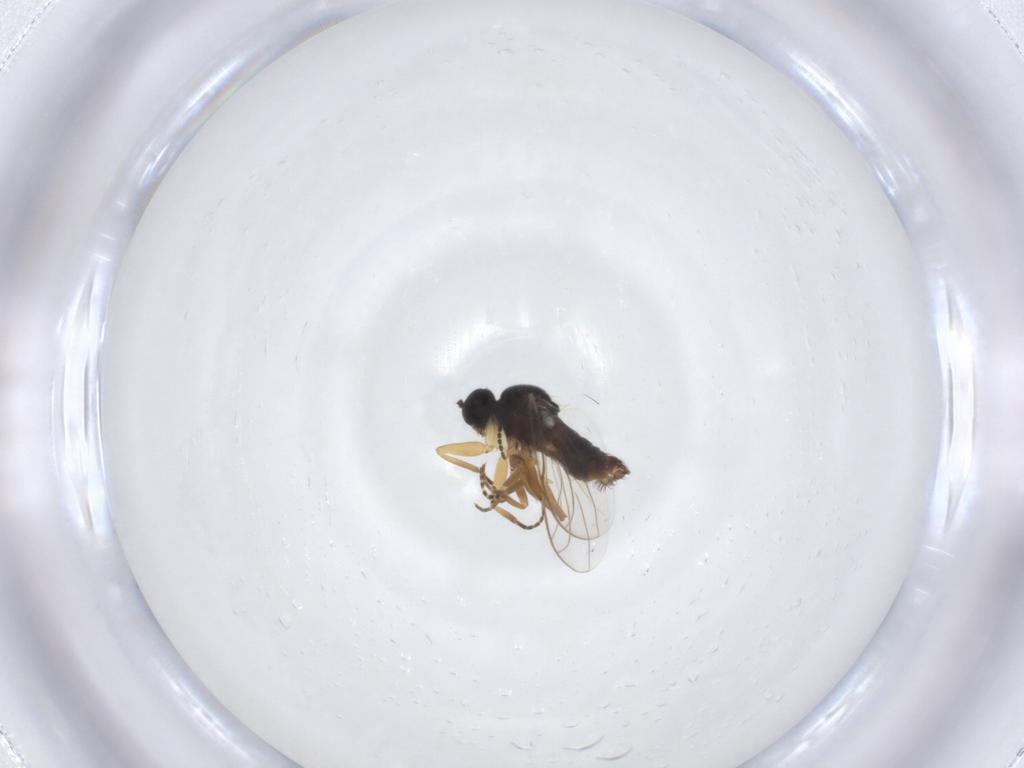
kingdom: Animalia
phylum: Arthropoda
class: Insecta
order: Diptera
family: Hybotidae
